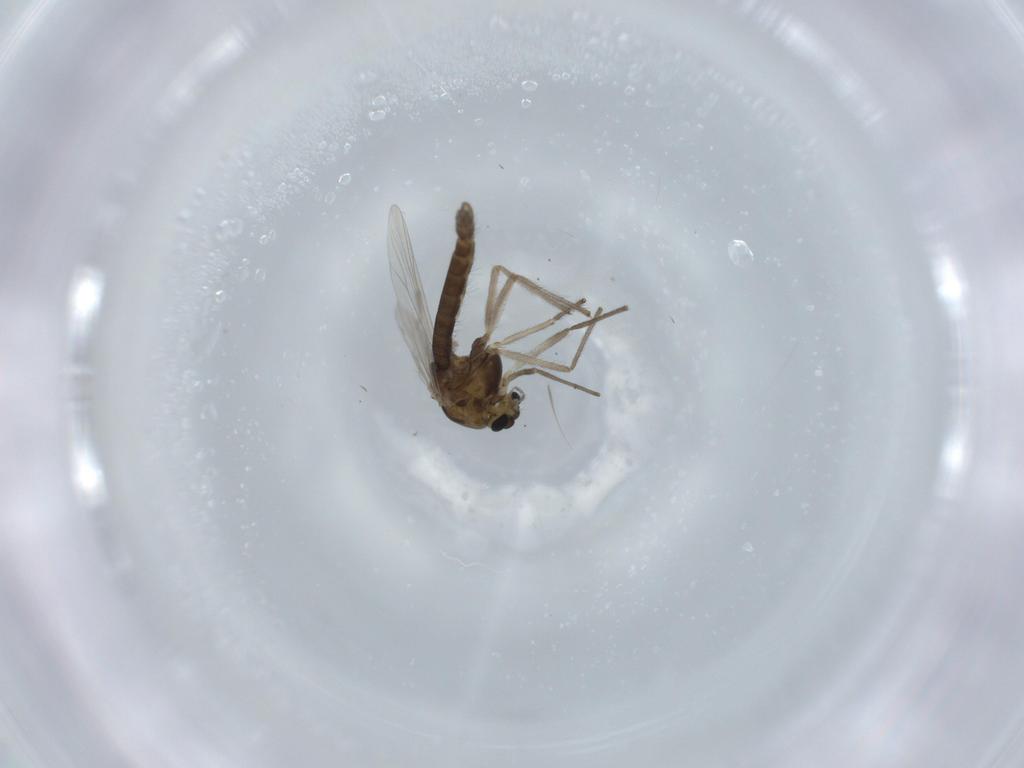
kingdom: Animalia
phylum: Arthropoda
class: Insecta
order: Diptera
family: Chironomidae
